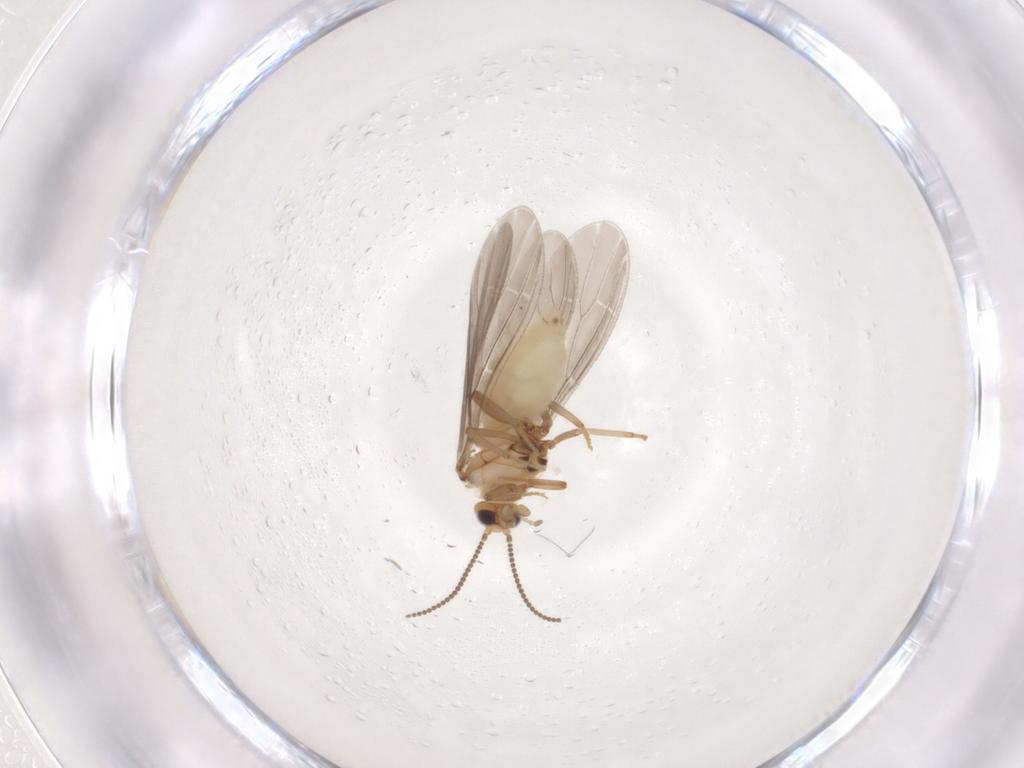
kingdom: Animalia
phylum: Arthropoda
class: Insecta
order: Neuroptera
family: Coniopterygidae
